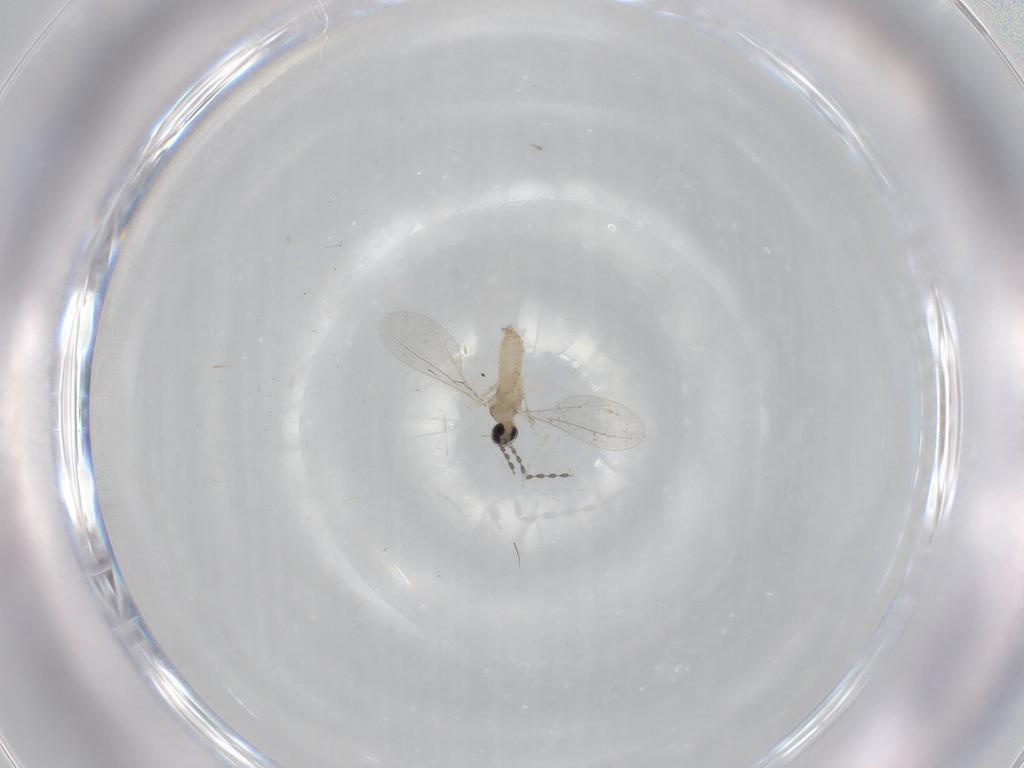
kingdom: Animalia
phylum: Arthropoda
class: Insecta
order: Diptera
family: Cecidomyiidae
